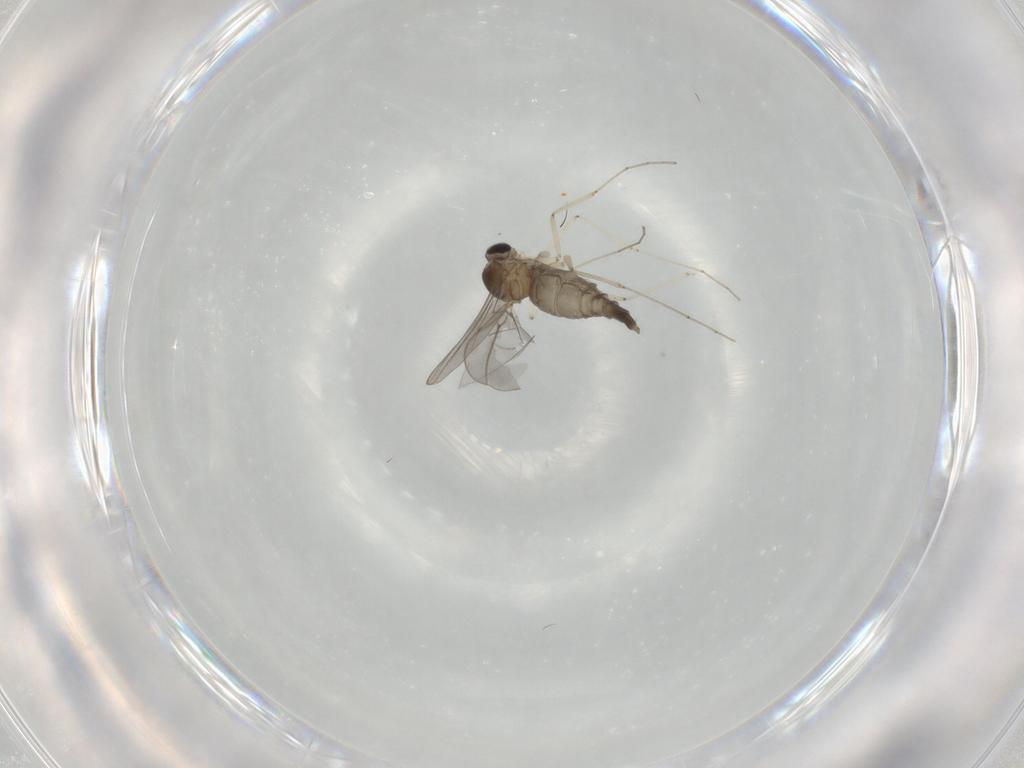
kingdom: Animalia
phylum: Arthropoda
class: Insecta
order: Diptera
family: Cecidomyiidae
